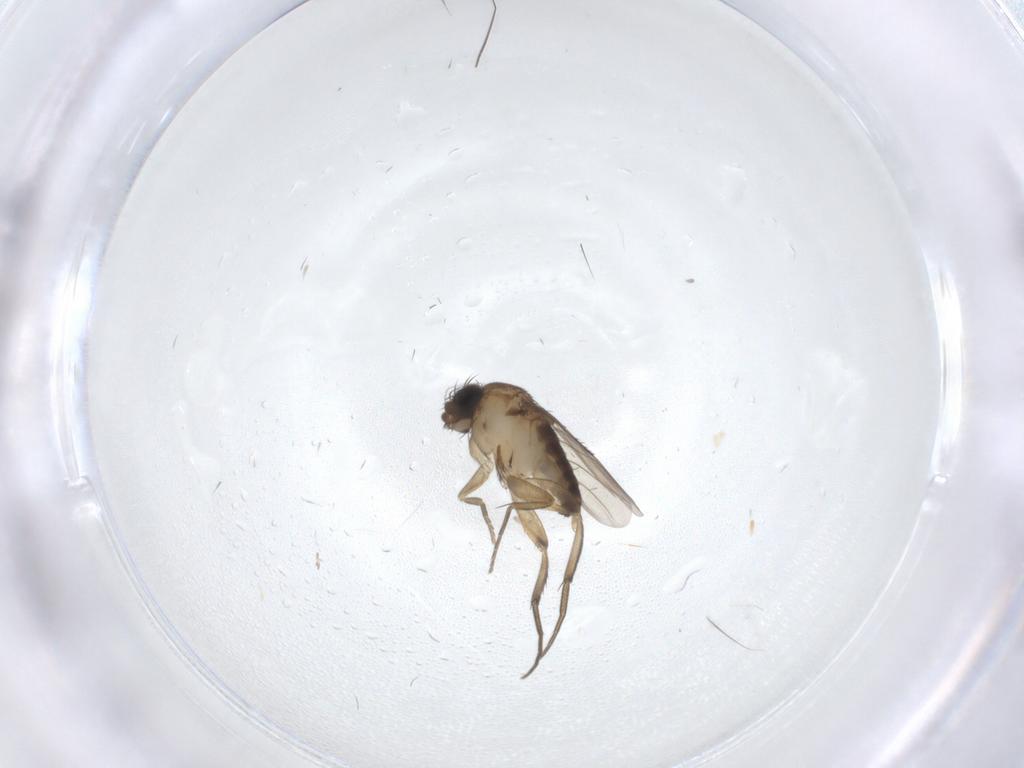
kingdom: Animalia
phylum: Arthropoda
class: Insecta
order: Diptera
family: Phoridae
